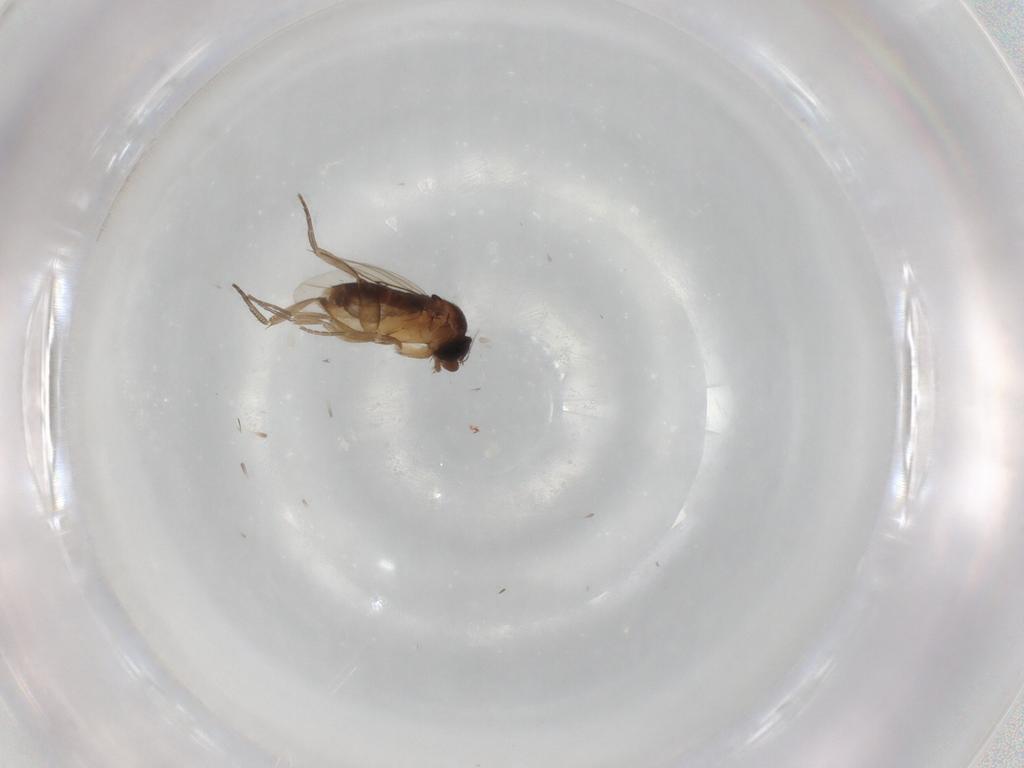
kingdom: Animalia
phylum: Arthropoda
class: Insecta
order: Diptera
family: Phoridae
